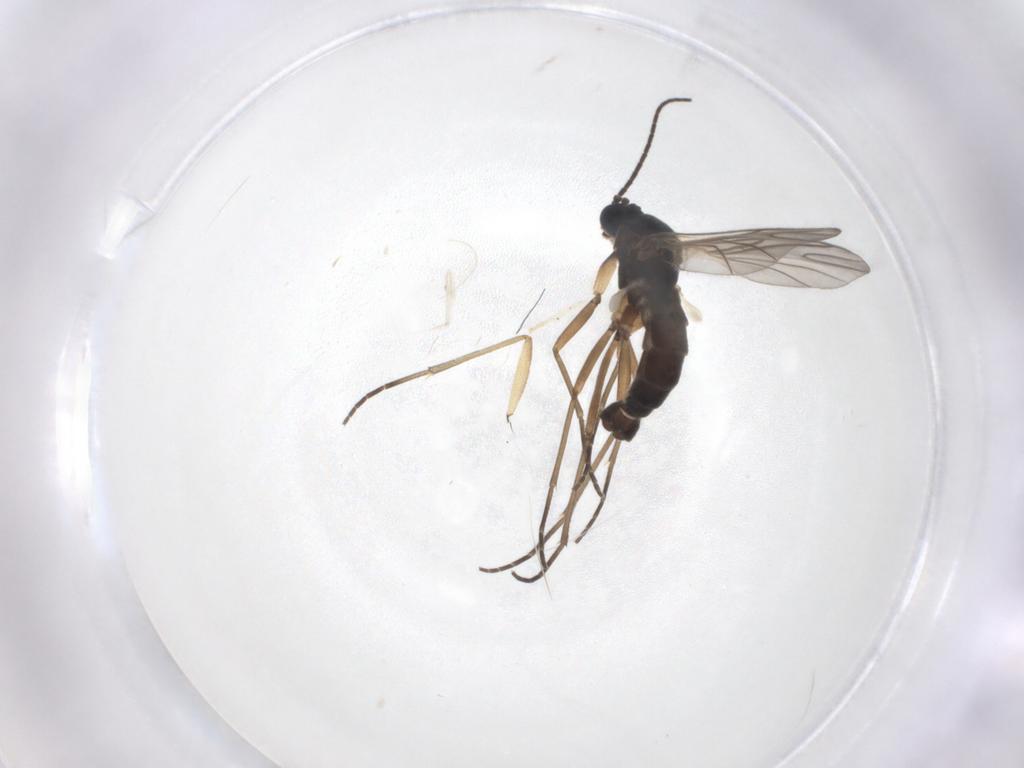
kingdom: Animalia
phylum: Arthropoda
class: Insecta
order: Diptera
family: Sciaridae
